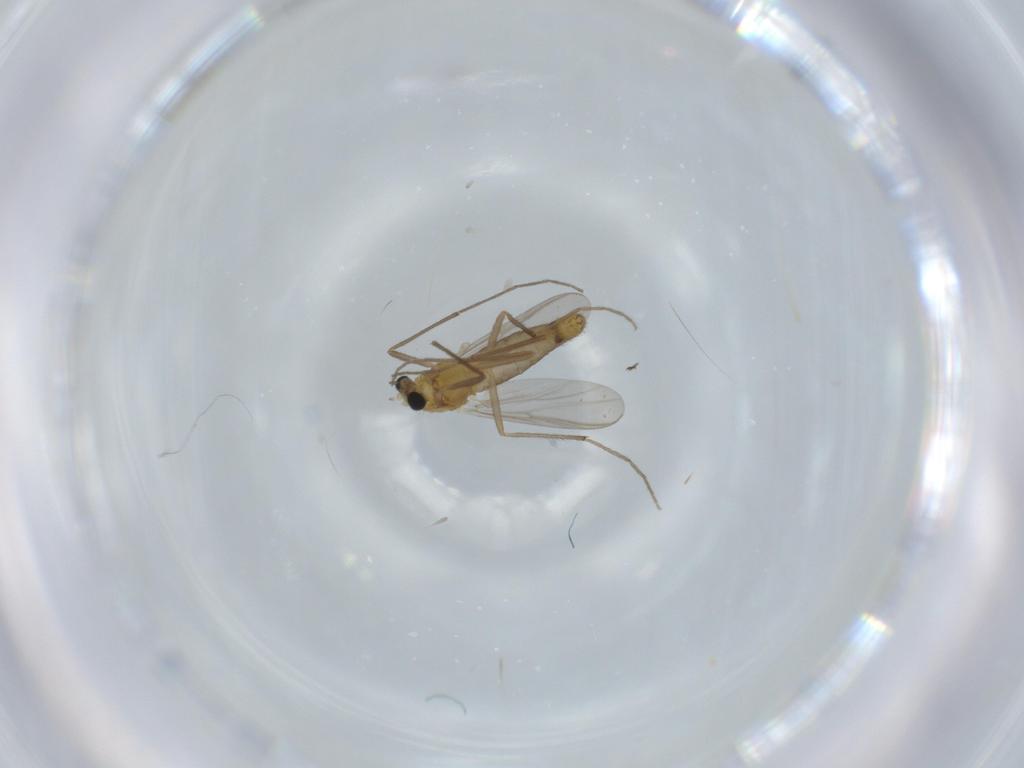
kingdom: Animalia
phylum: Arthropoda
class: Insecta
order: Diptera
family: Chironomidae
